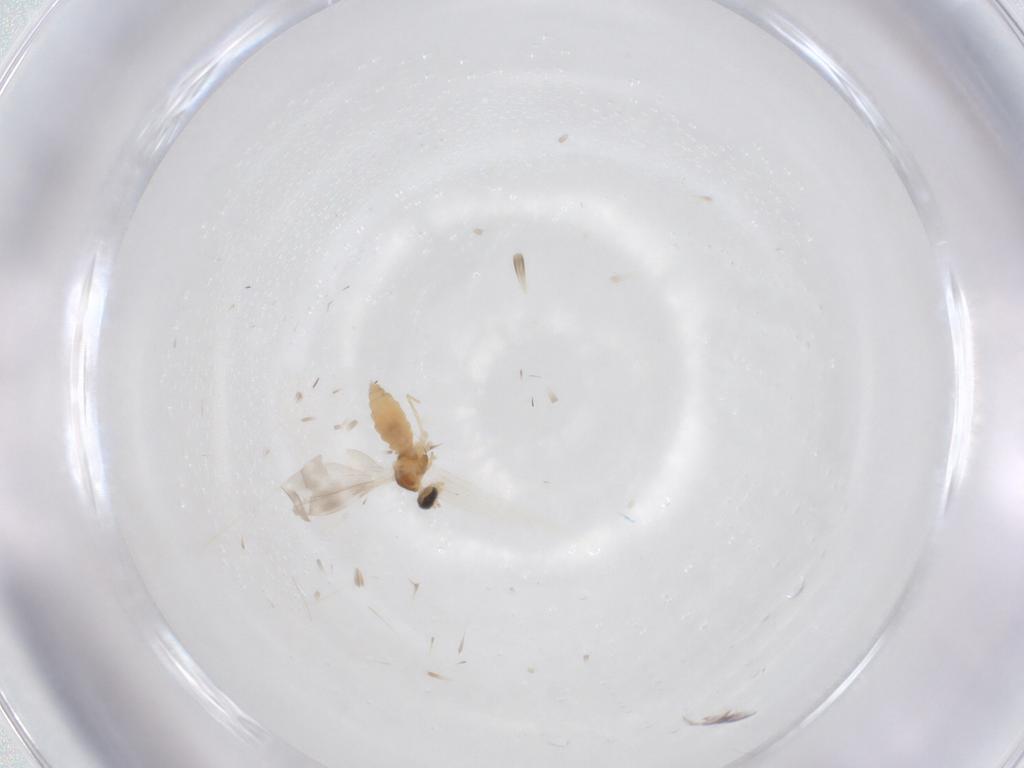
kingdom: Animalia
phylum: Arthropoda
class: Insecta
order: Diptera
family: Cecidomyiidae
